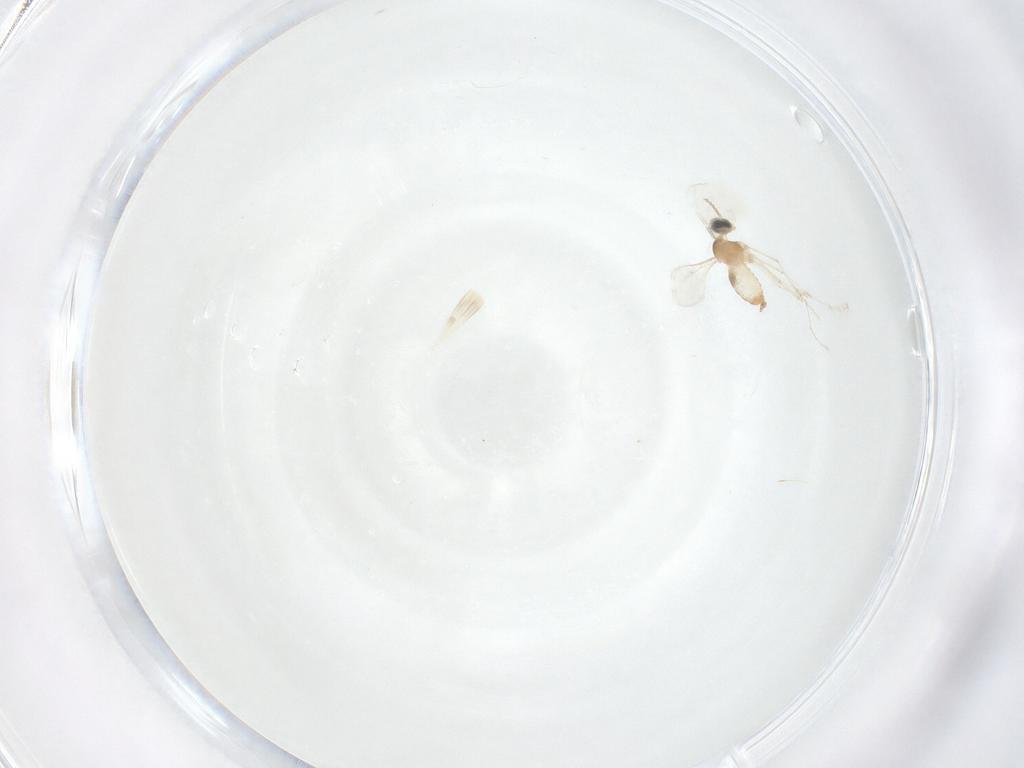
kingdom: Animalia
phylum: Arthropoda
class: Insecta
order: Diptera
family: Cecidomyiidae
